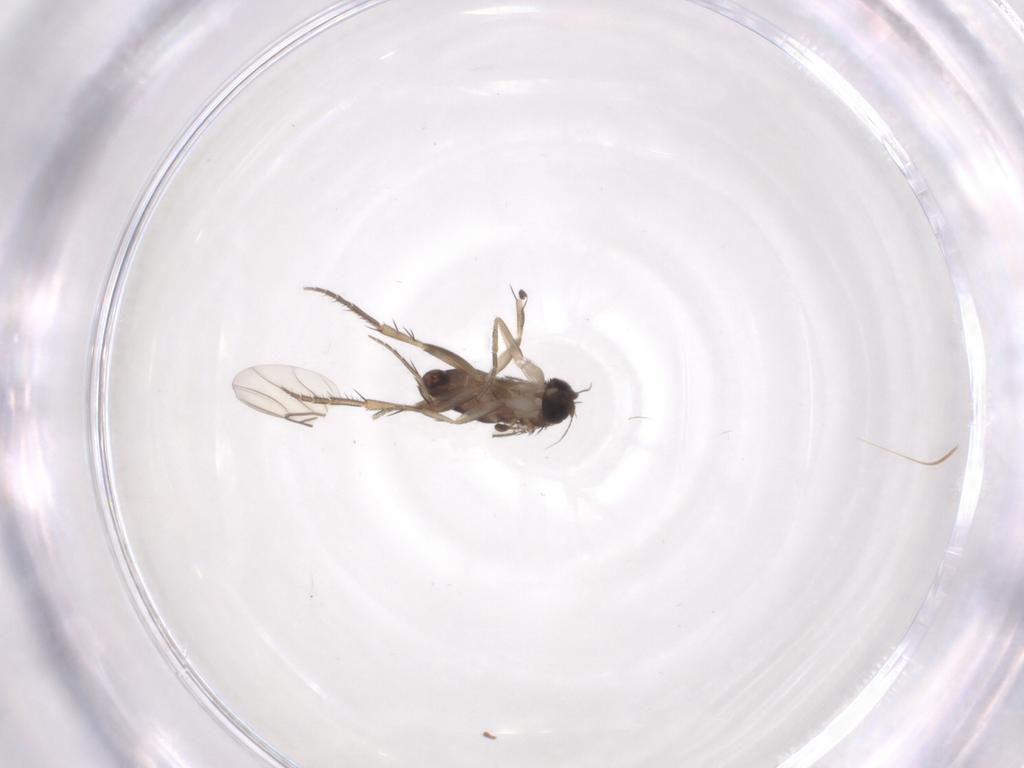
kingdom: Animalia
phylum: Arthropoda
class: Insecta
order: Diptera
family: Phoridae
